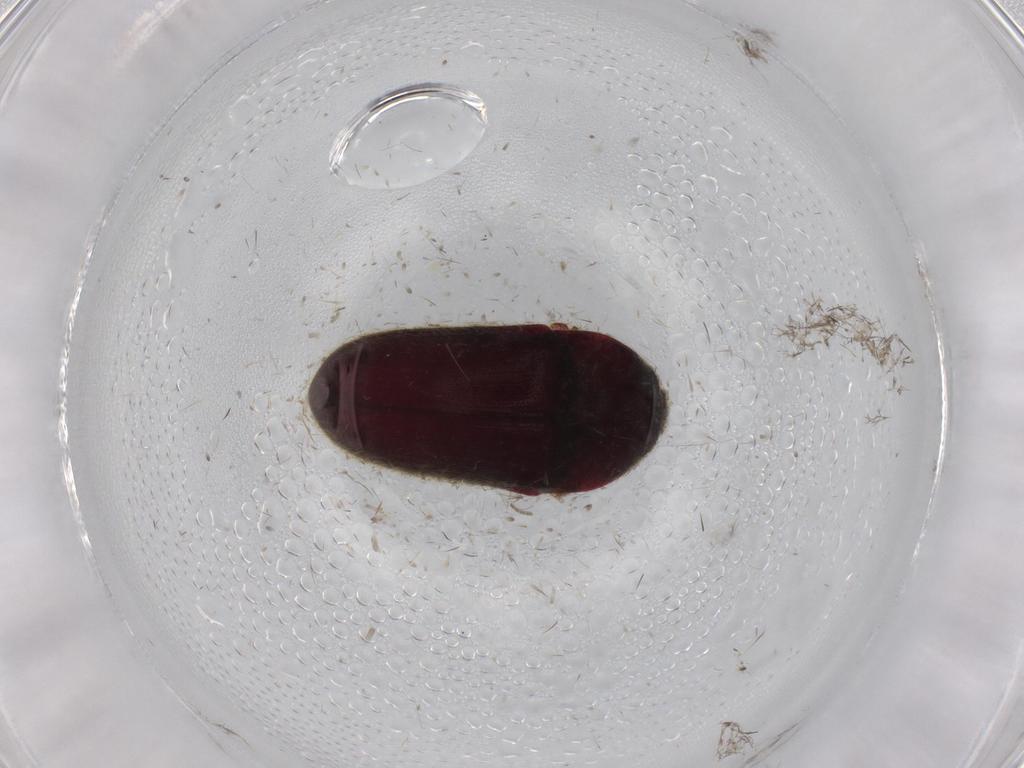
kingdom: Animalia
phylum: Arthropoda
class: Insecta
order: Coleoptera
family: Throscidae
